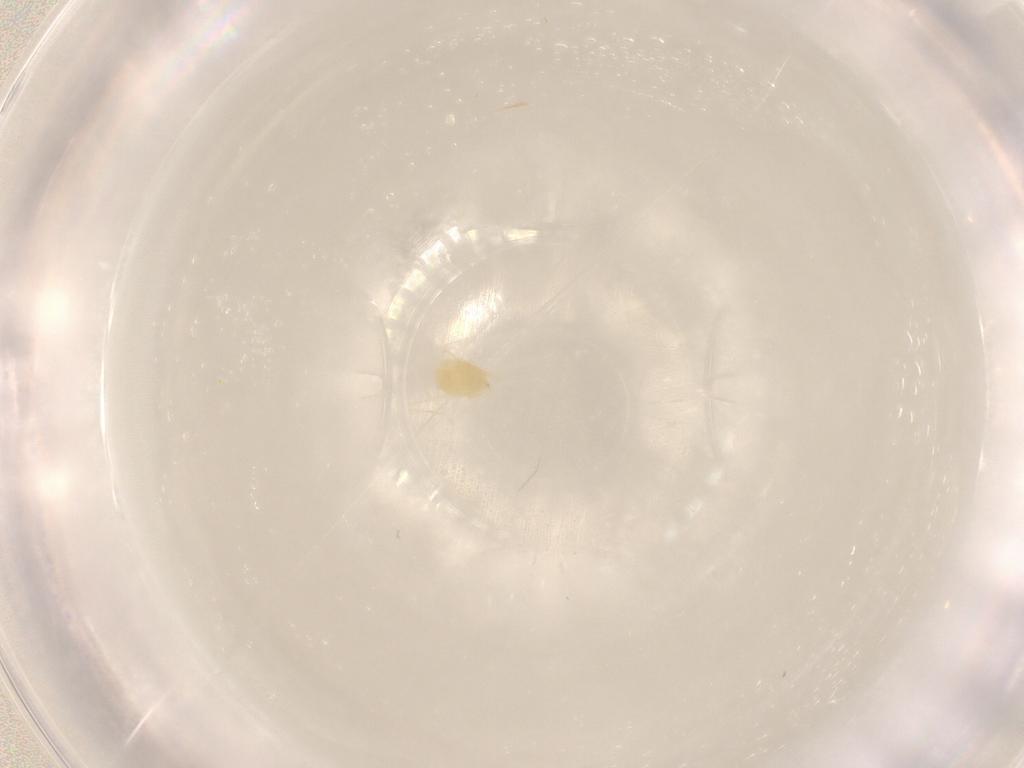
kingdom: Animalia
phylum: Arthropoda
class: Arachnida
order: Trombidiformes
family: Tetranychidae
